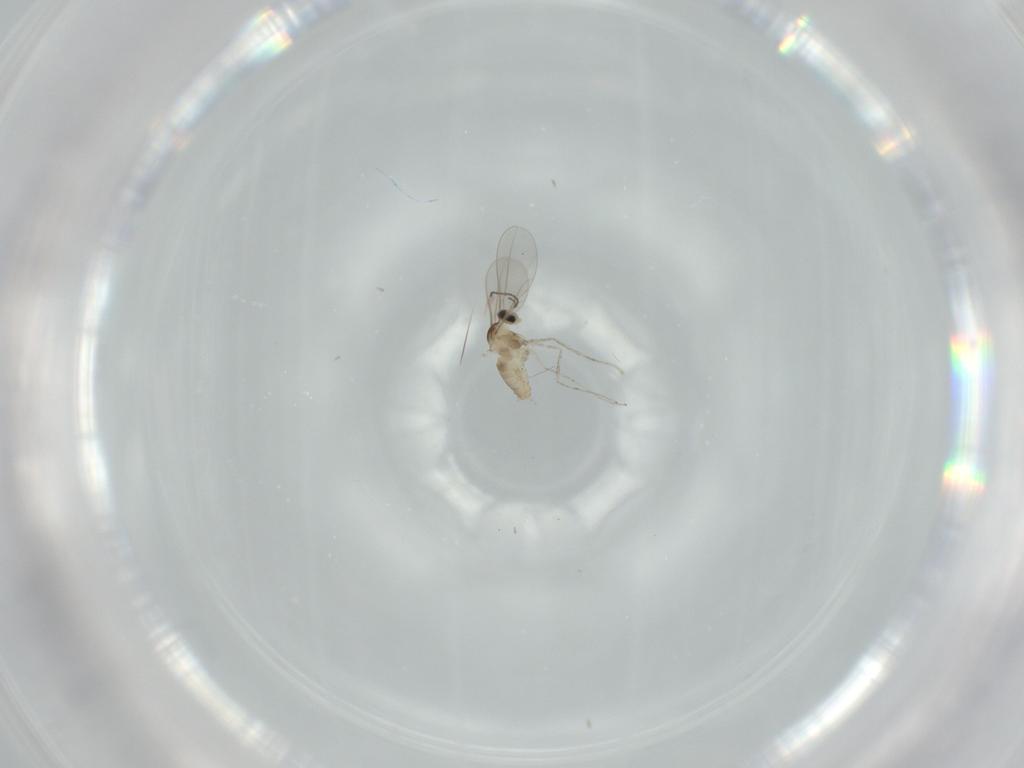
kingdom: Animalia
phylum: Arthropoda
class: Insecta
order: Diptera
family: Cecidomyiidae
